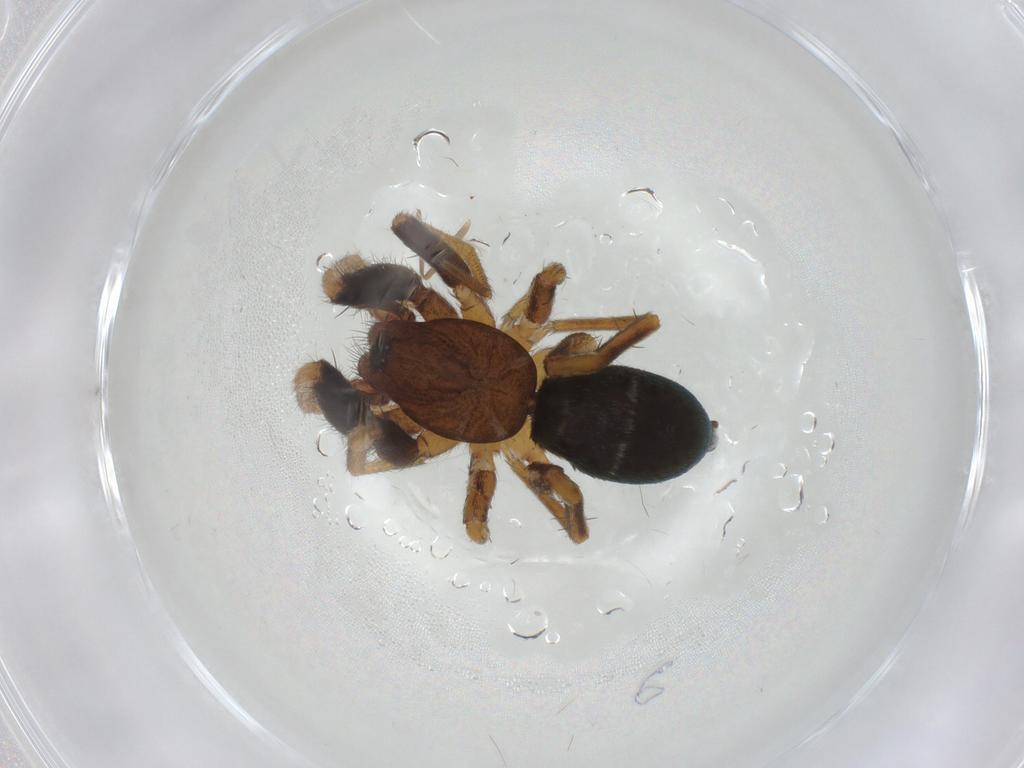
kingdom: Animalia
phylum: Arthropoda
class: Arachnida
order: Araneae
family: Gnaphosidae
